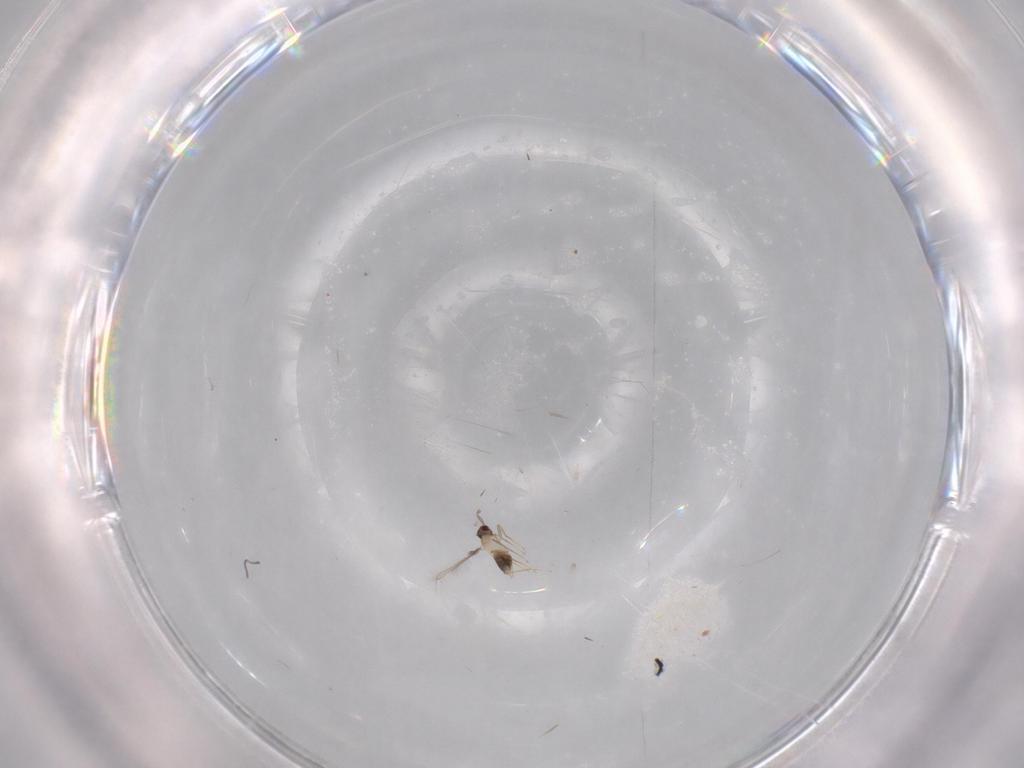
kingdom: Animalia
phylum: Arthropoda
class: Insecta
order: Hymenoptera
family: Mymaridae
